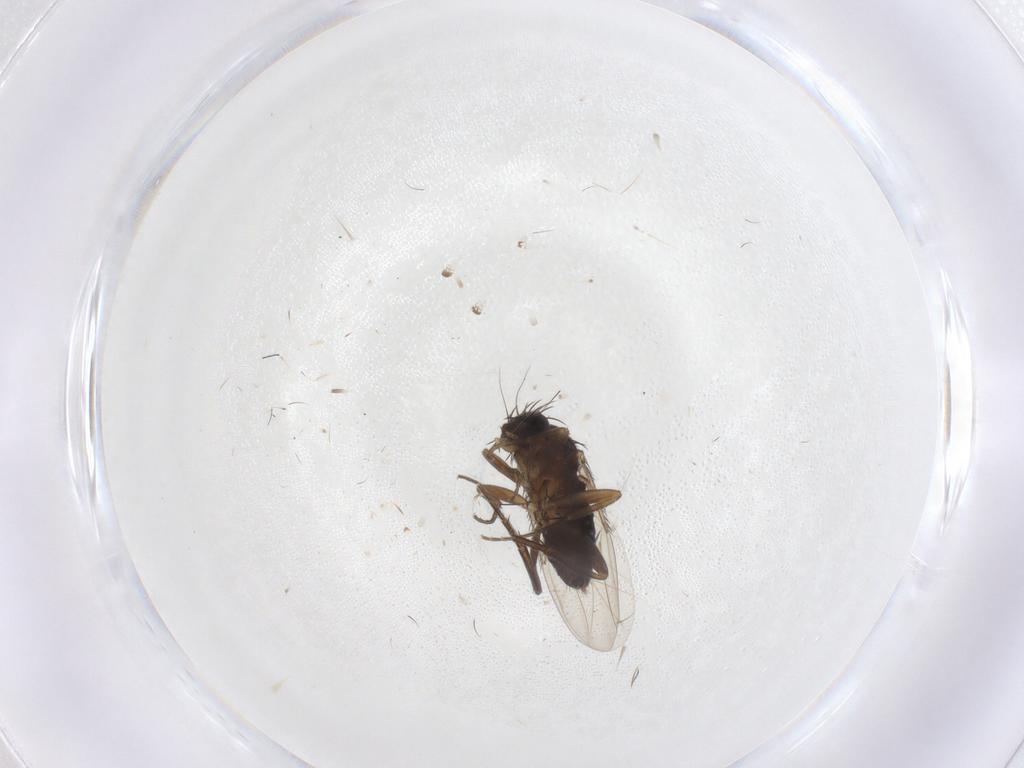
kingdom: Animalia
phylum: Arthropoda
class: Insecta
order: Diptera
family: Phoridae
